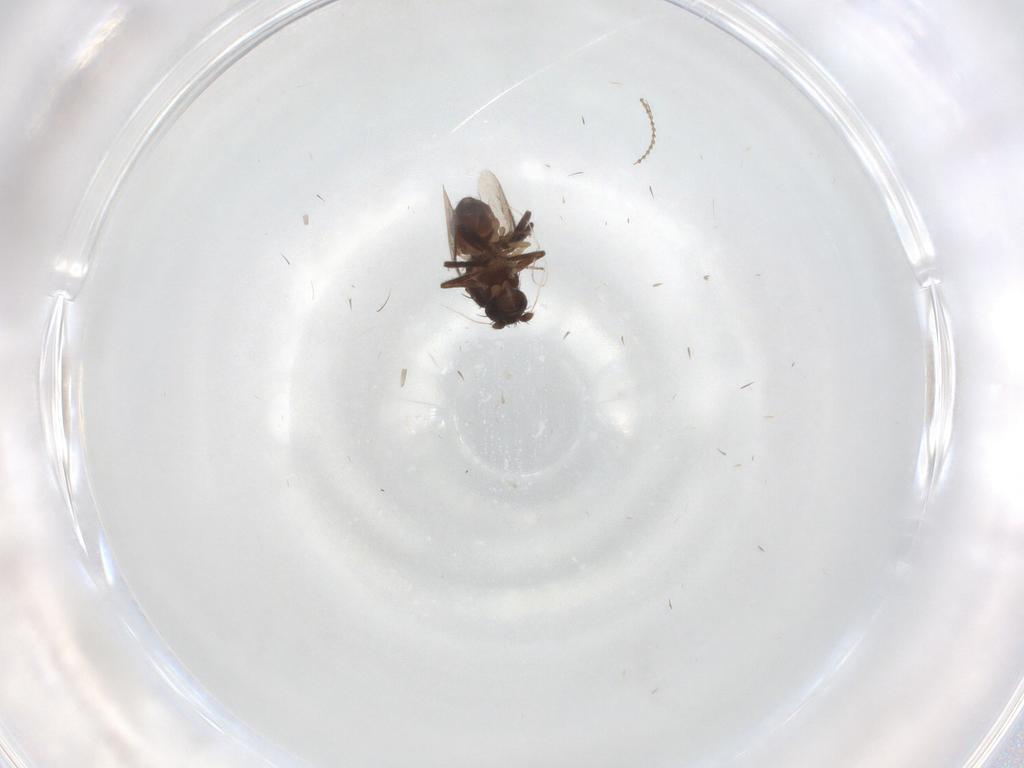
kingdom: Animalia
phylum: Arthropoda
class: Insecta
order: Diptera
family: Sphaeroceridae
